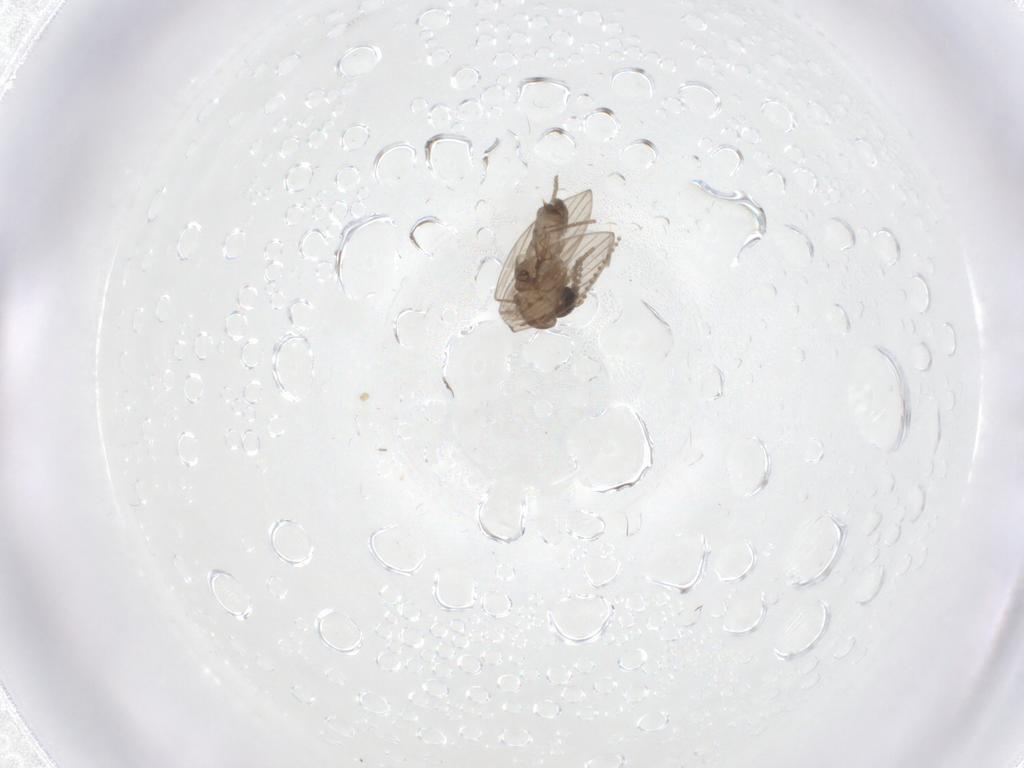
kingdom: Animalia
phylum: Arthropoda
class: Insecta
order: Diptera
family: Psychodidae
